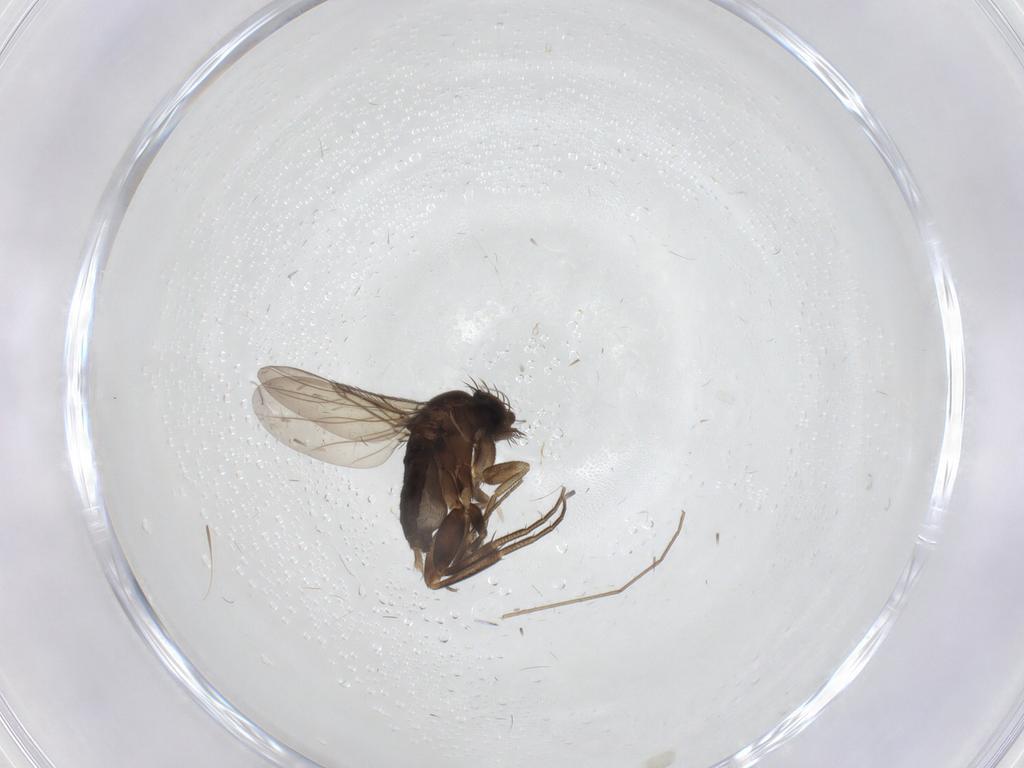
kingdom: Animalia
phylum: Arthropoda
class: Insecta
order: Diptera
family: Phoridae
